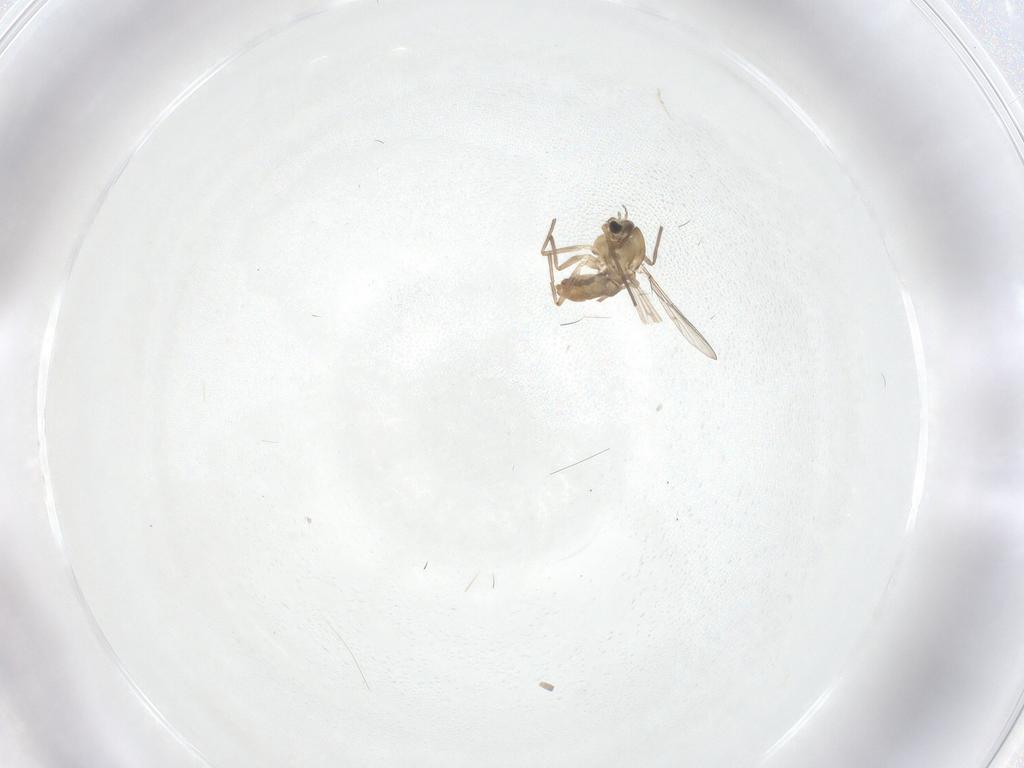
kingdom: Animalia
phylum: Arthropoda
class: Insecta
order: Diptera
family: Chironomidae
